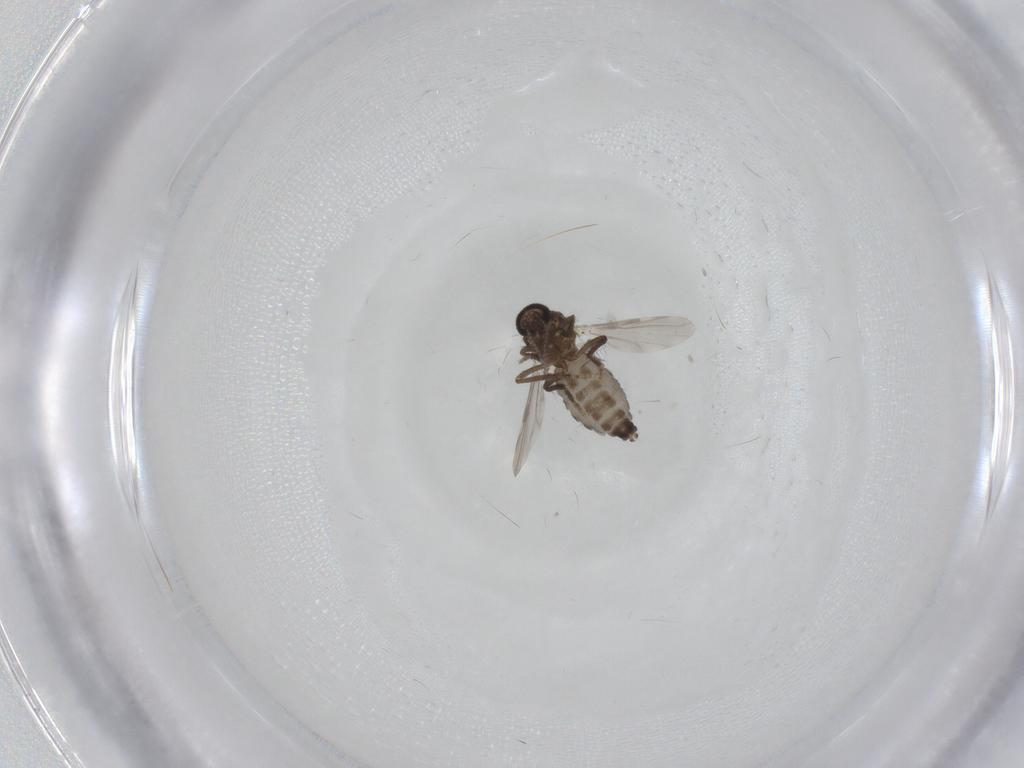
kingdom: Animalia
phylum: Arthropoda
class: Insecta
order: Diptera
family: Ceratopogonidae
